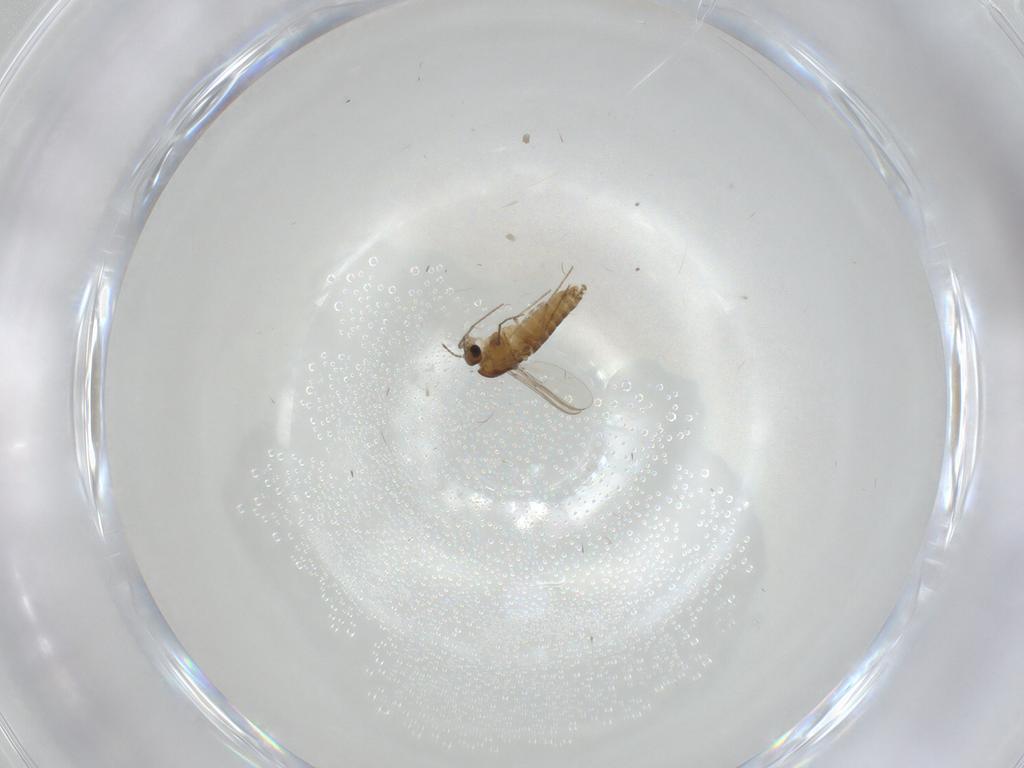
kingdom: Animalia
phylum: Arthropoda
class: Insecta
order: Diptera
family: Chironomidae
